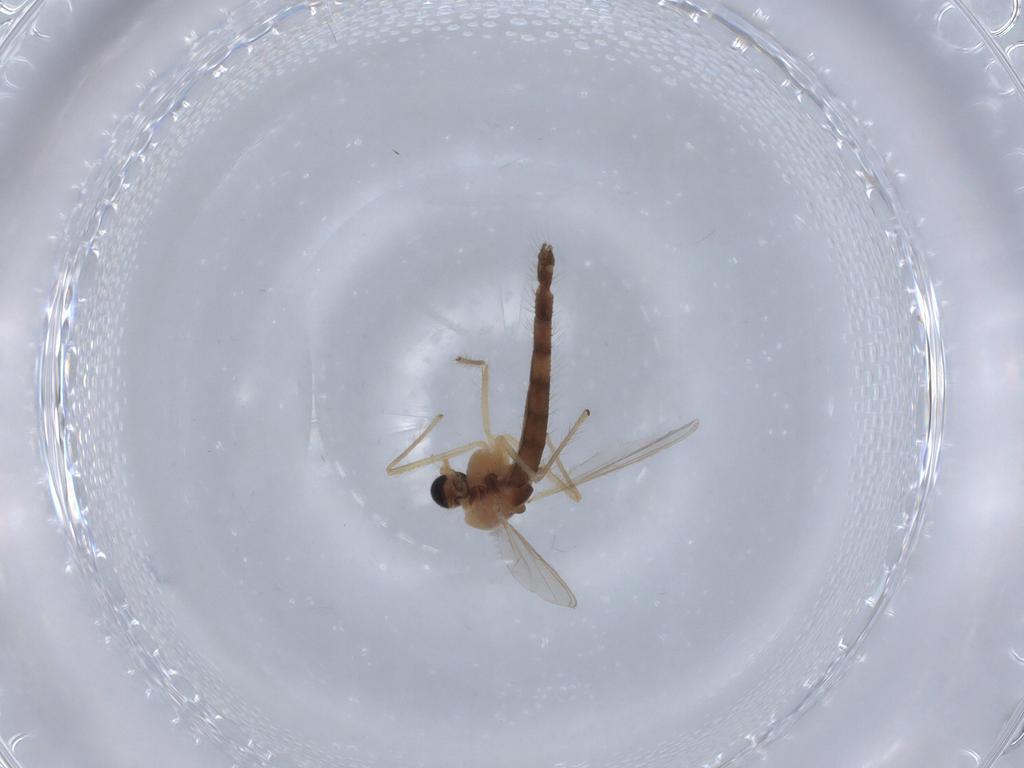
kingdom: Animalia
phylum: Arthropoda
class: Insecta
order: Diptera
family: Chironomidae
